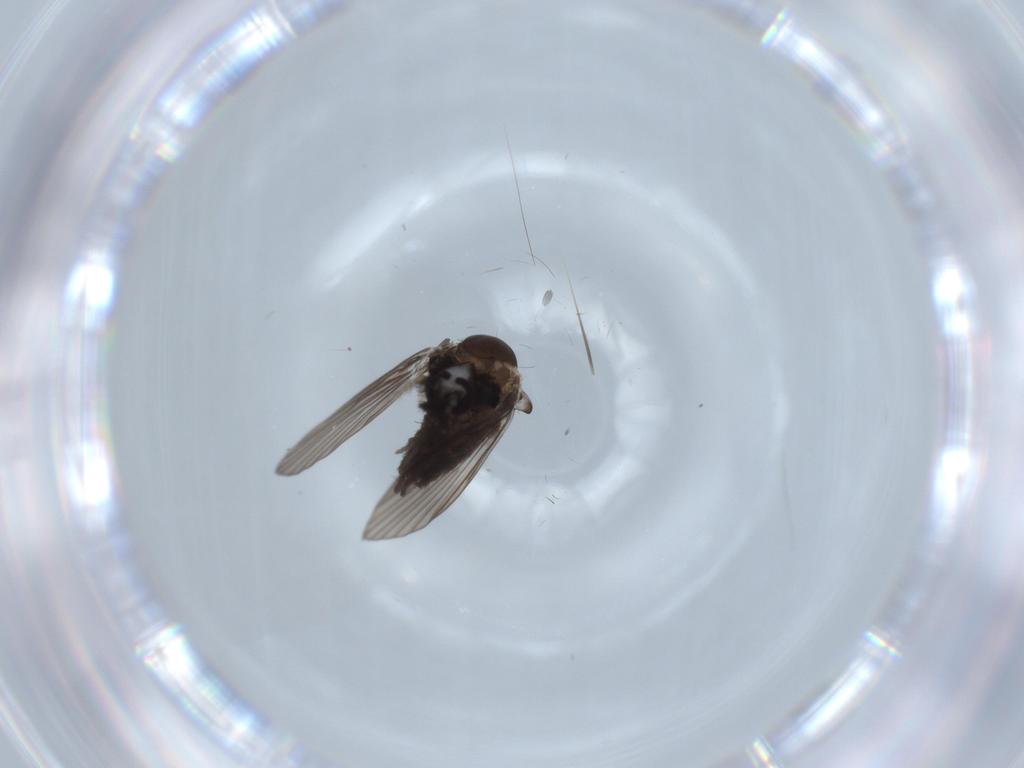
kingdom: Animalia
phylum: Arthropoda
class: Insecta
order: Diptera
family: Psychodidae
